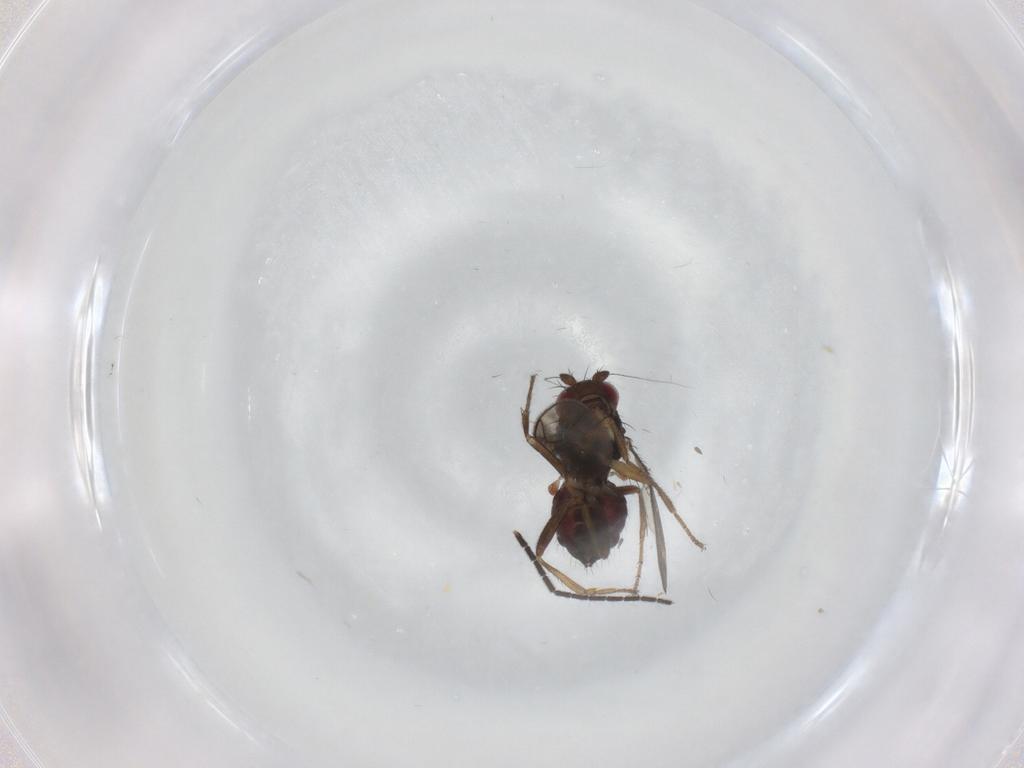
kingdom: Animalia
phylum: Arthropoda
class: Insecta
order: Diptera
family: Sphaeroceridae
